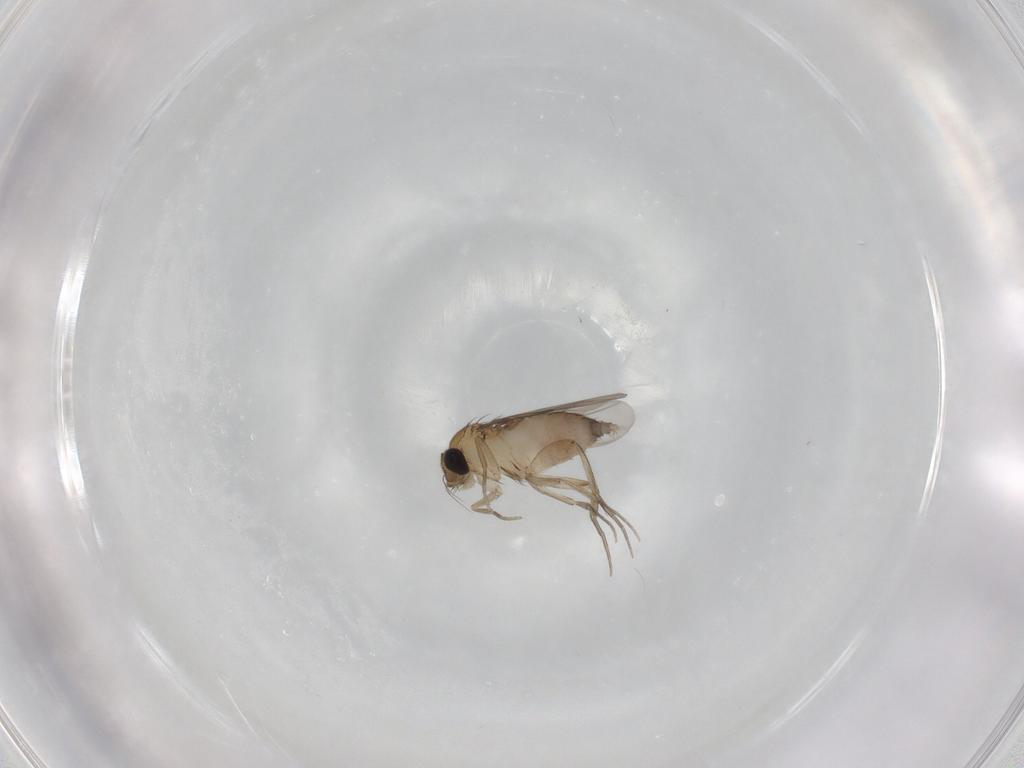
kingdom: Animalia
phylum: Arthropoda
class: Insecta
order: Diptera
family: Phoridae
